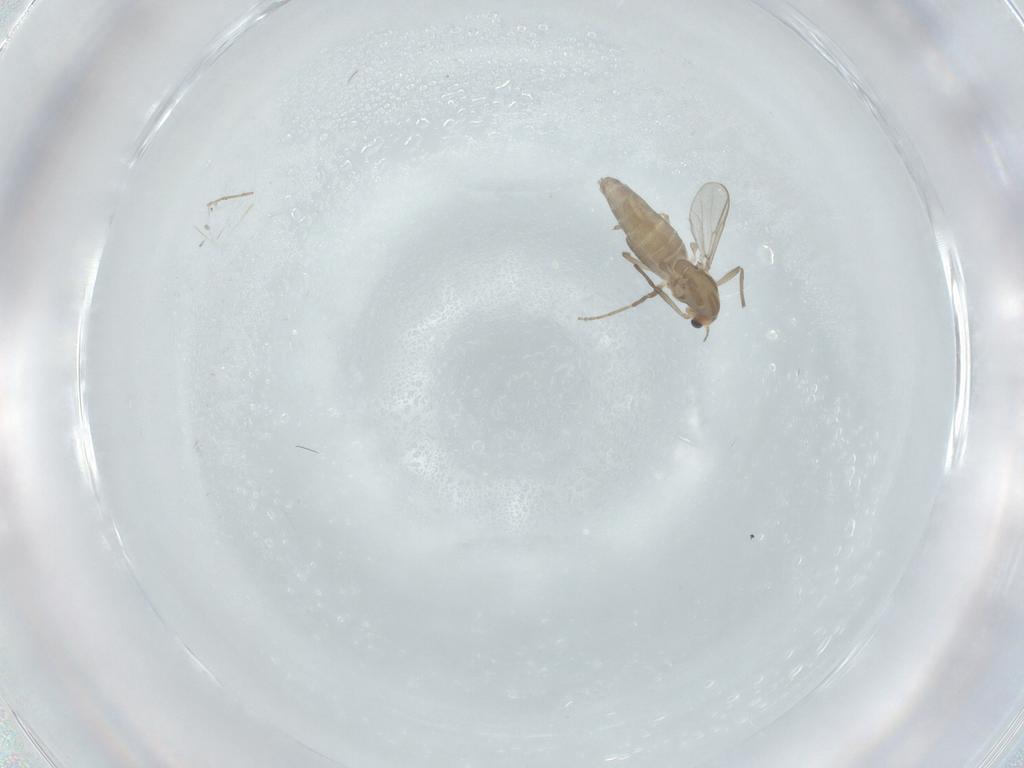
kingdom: Animalia
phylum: Arthropoda
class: Insecta
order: Diptera
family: Chironomidae
